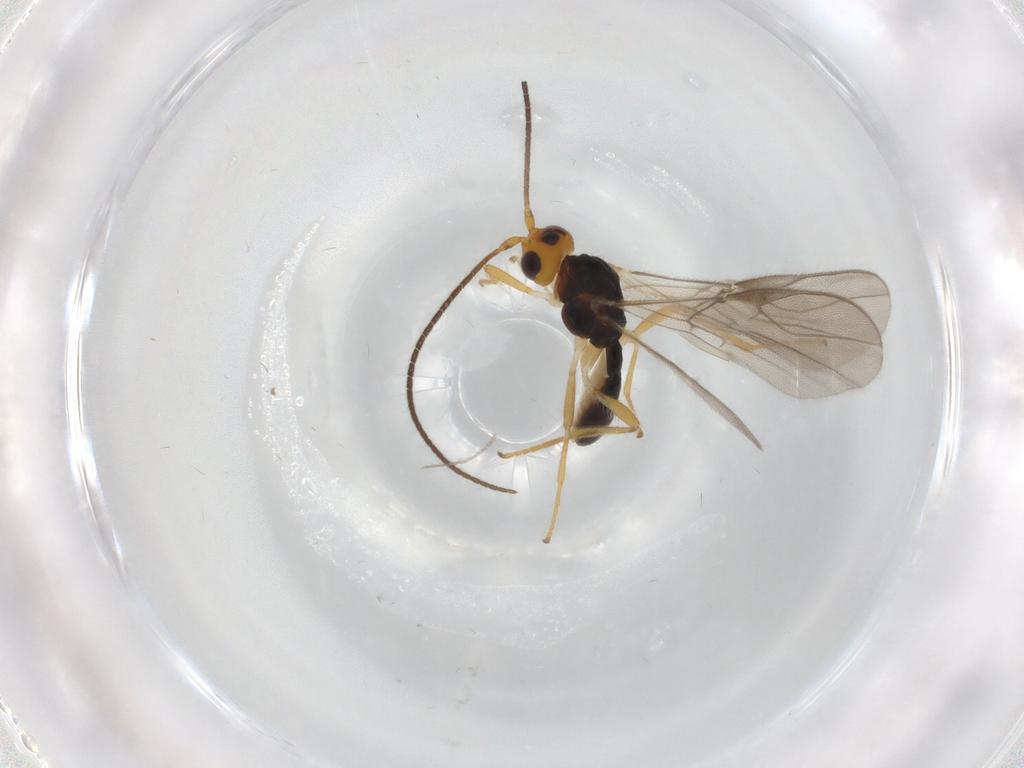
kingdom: Animalia
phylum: Arthropoda
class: Insecta
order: Hymenoptera
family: Braconidae
